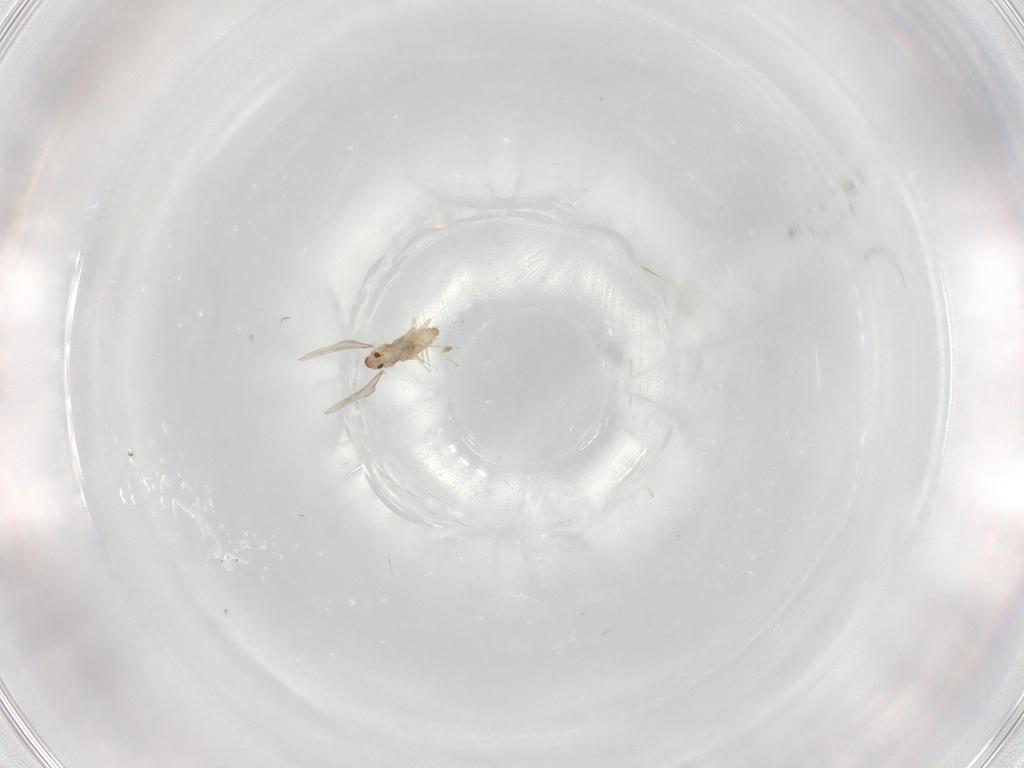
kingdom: Animalia
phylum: Arthropoda
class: Insecta
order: Diptera
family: Cecidomyiidae
